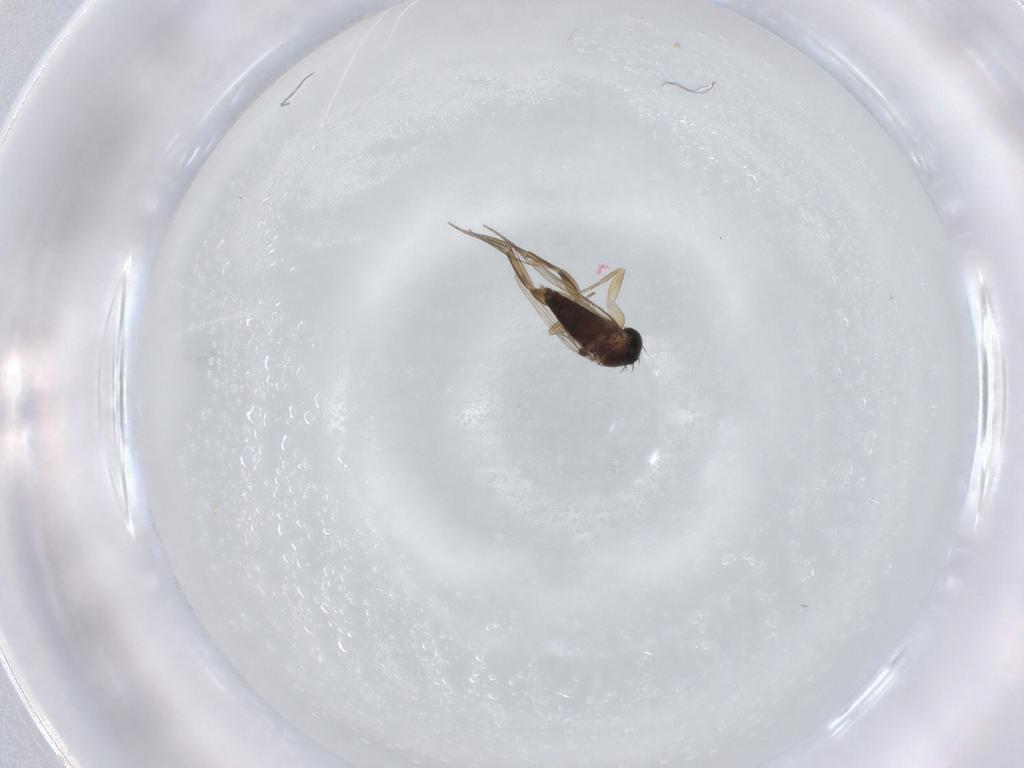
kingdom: Animalia
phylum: Arthropoda
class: Insecta
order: Diptera
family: Phoridae
